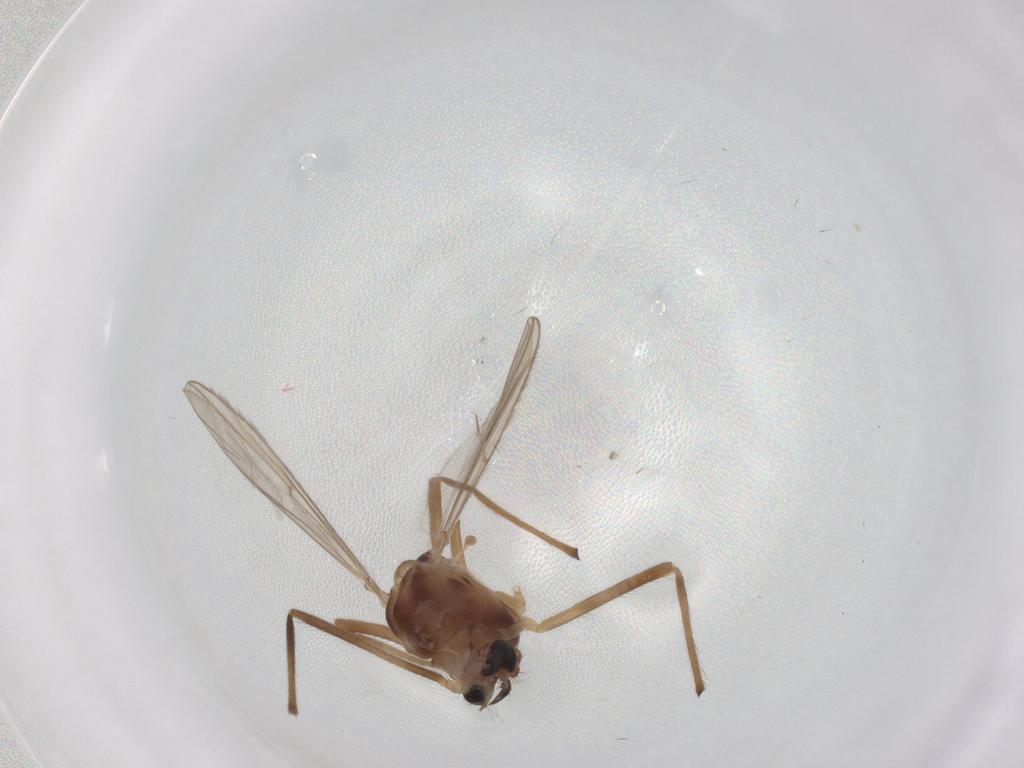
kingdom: Animalia
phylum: Arthropoda
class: Insecta
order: Diptera
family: Chironomidae
